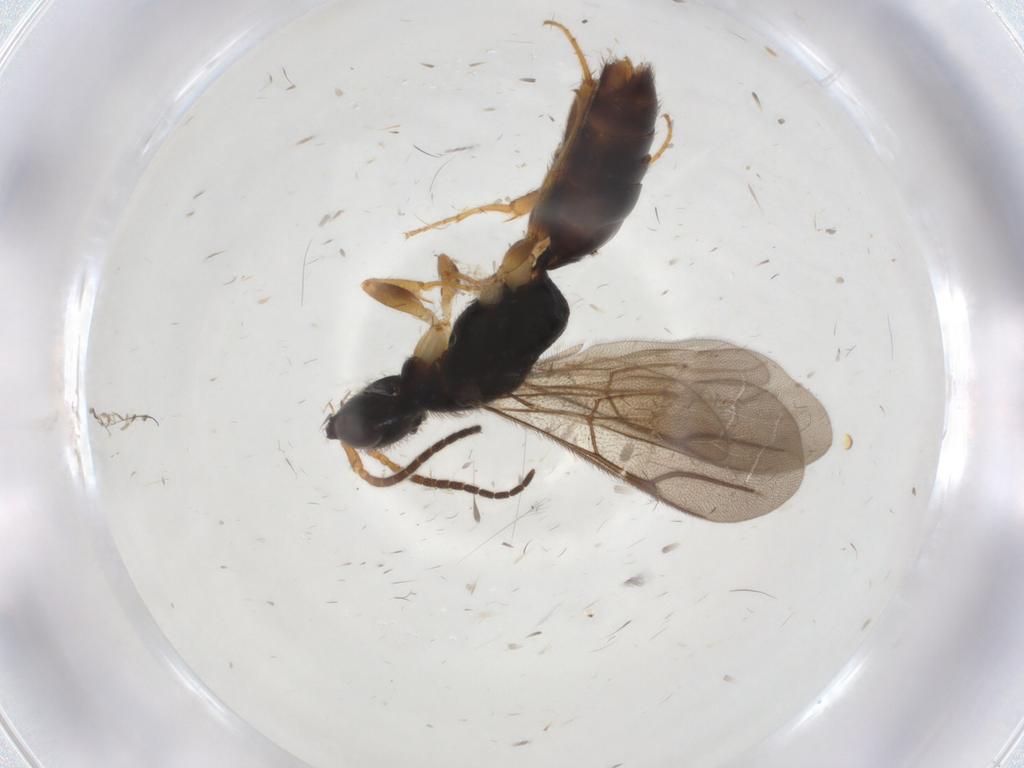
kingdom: Animalia
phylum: Arthropoda
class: Insecta
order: Hymenoptera
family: Bethylidae
